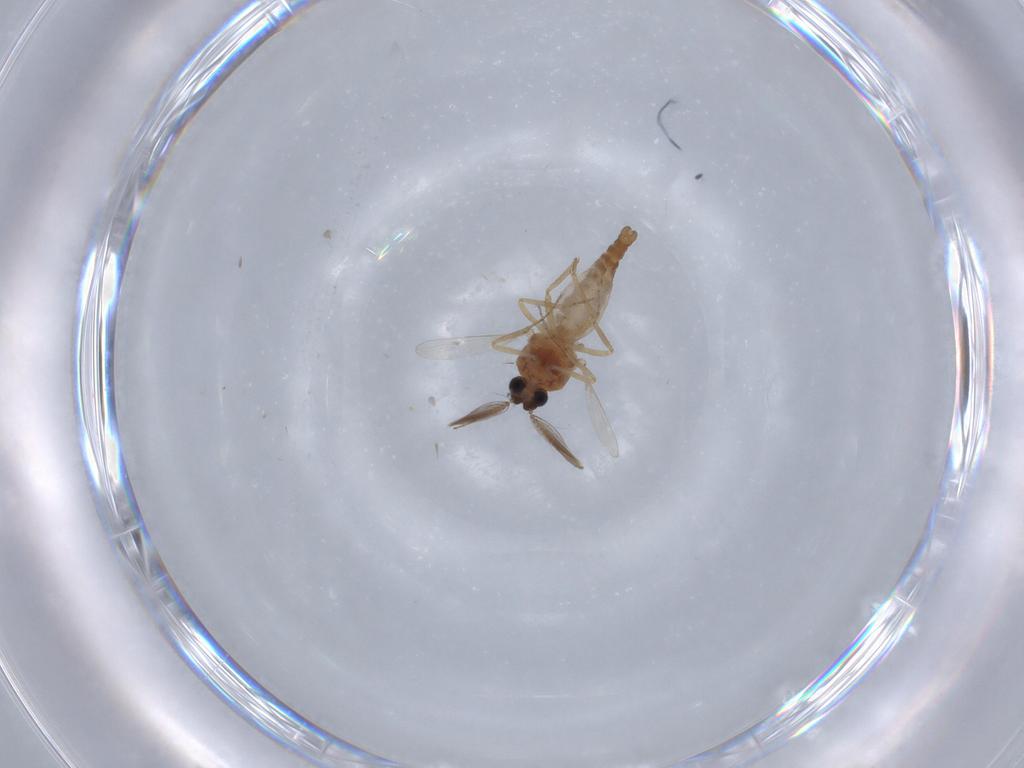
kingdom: Animalia
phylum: Arthropoda
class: Insecta
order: Diptera
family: Ceratopogonidae
